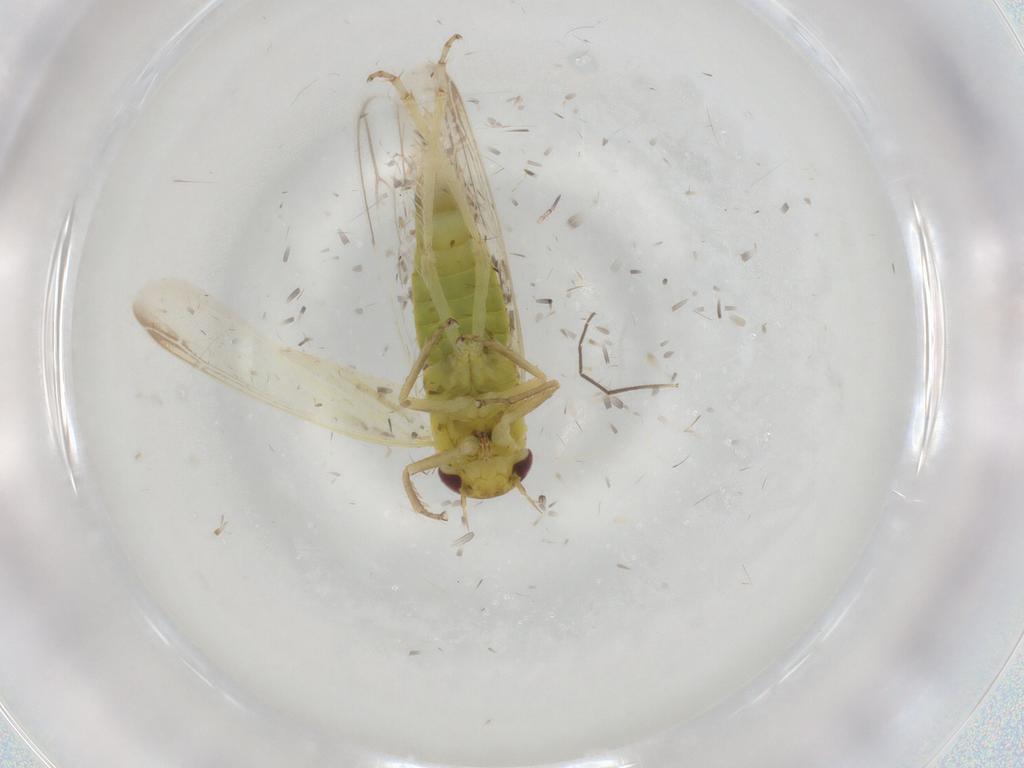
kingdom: Animalia
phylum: Arthropoda
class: Insecta
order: Hemiptera
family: Cicadellidae
